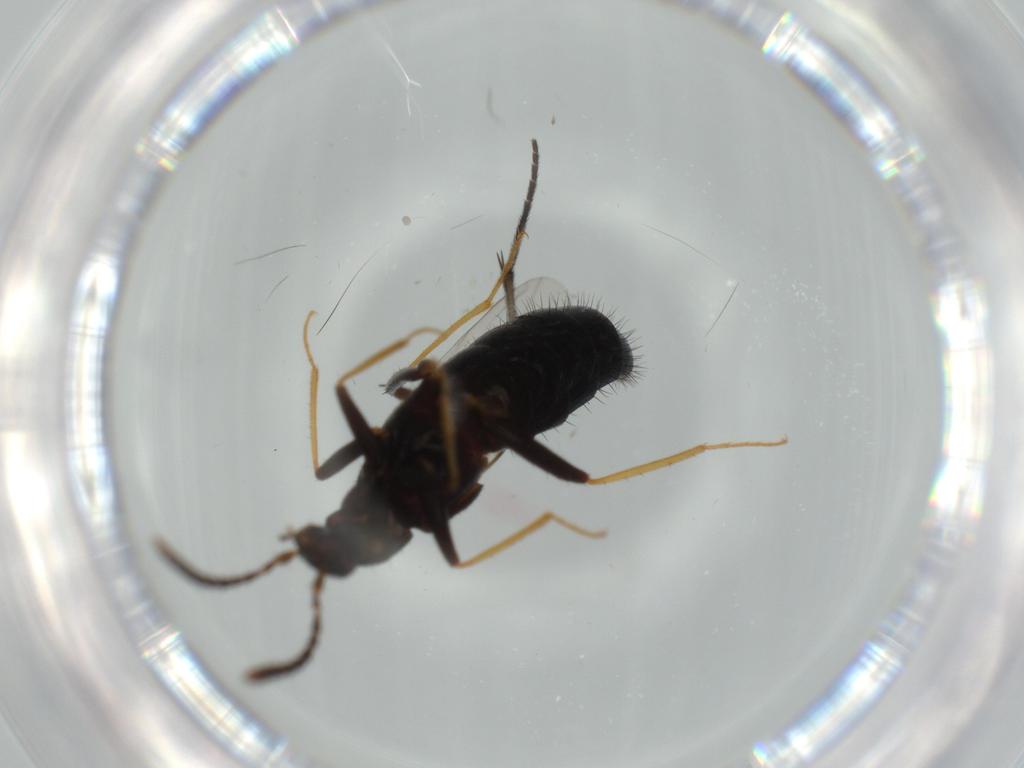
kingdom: Animalia
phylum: Arthropoda
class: Insecta
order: Coleoptera
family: Staphylinidae
